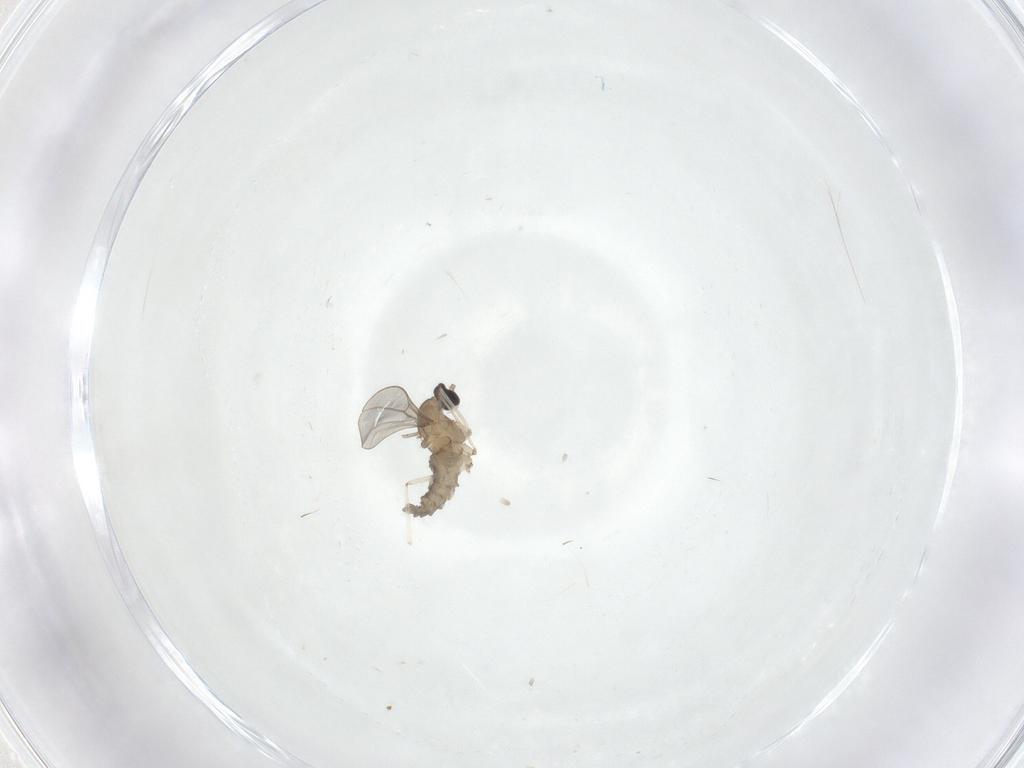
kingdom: Animalia
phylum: Arthropoda
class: Insecta
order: Diptera
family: Cecidomyiidae
